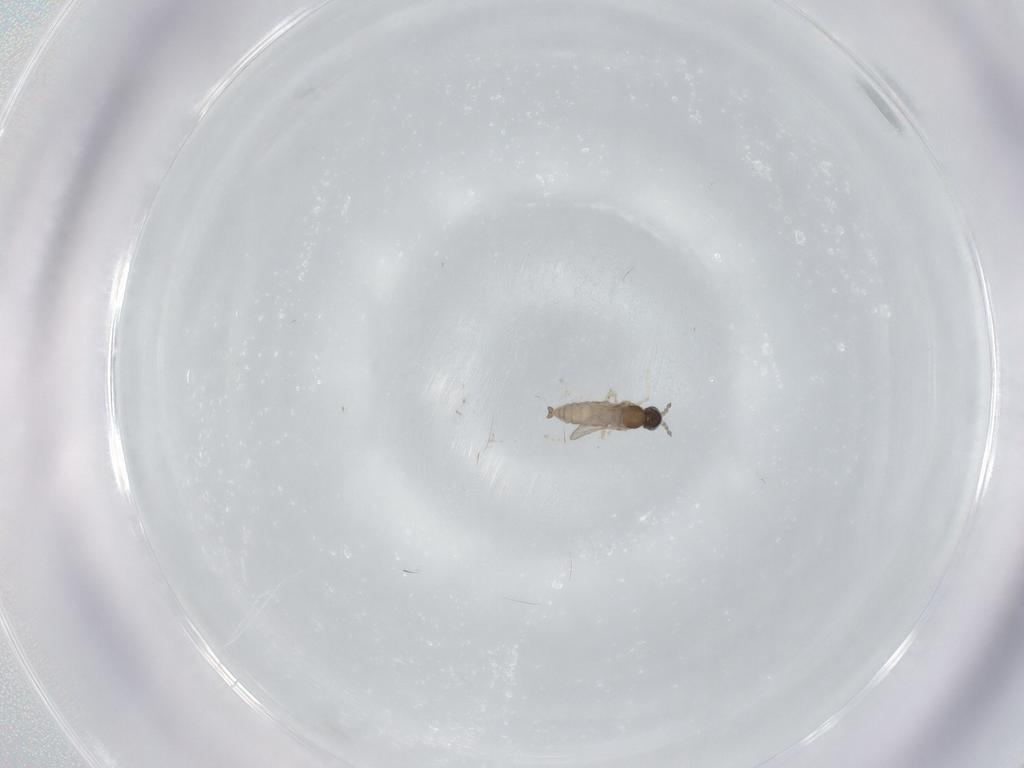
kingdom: Animalia
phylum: Arthropoda
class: Insecta
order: Diptera
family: Cecidomyiidae
